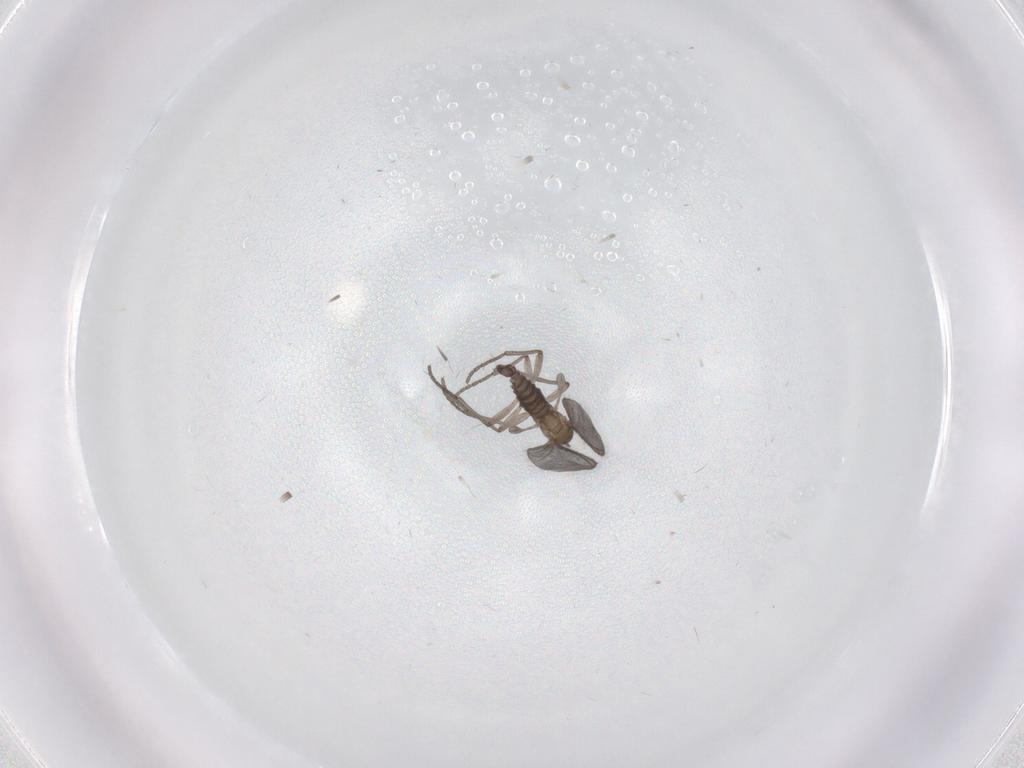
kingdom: Animalia
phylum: Arthropoda
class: Insecta
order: Diptera
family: Sciaridae
